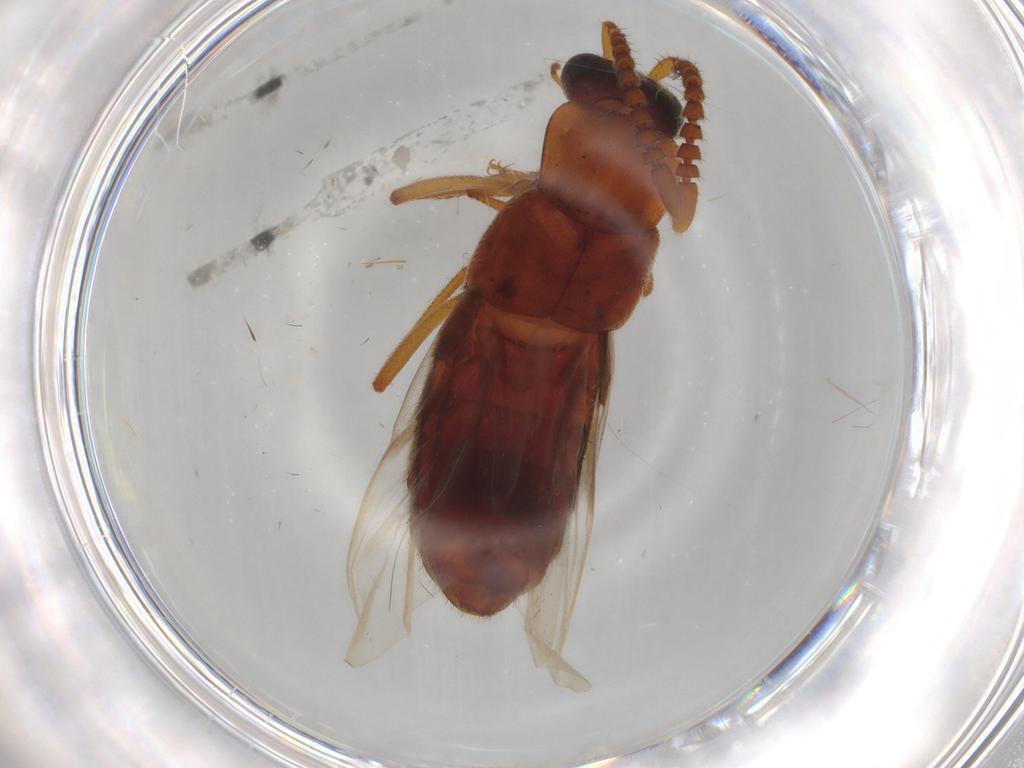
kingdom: Animalia
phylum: Arthropoda
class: Insecta
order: Coleoptera
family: Dytiscidae
